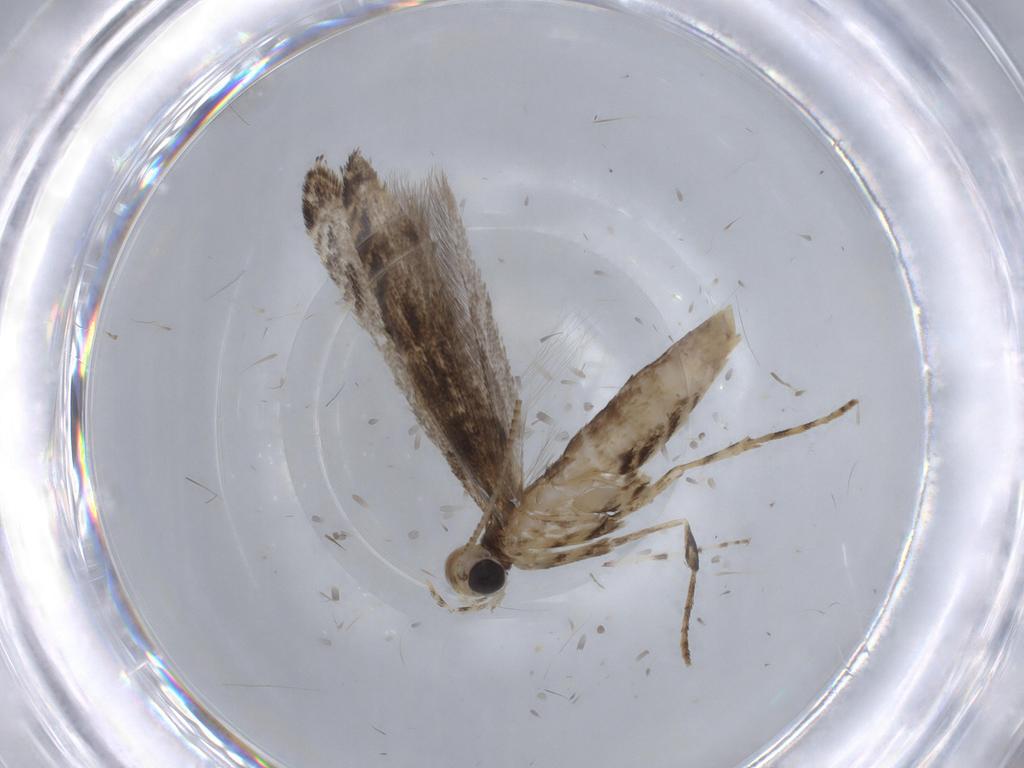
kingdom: Animalia
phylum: Arthropoda
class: Insecta
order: Lepidoptera
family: Gracillariidae
